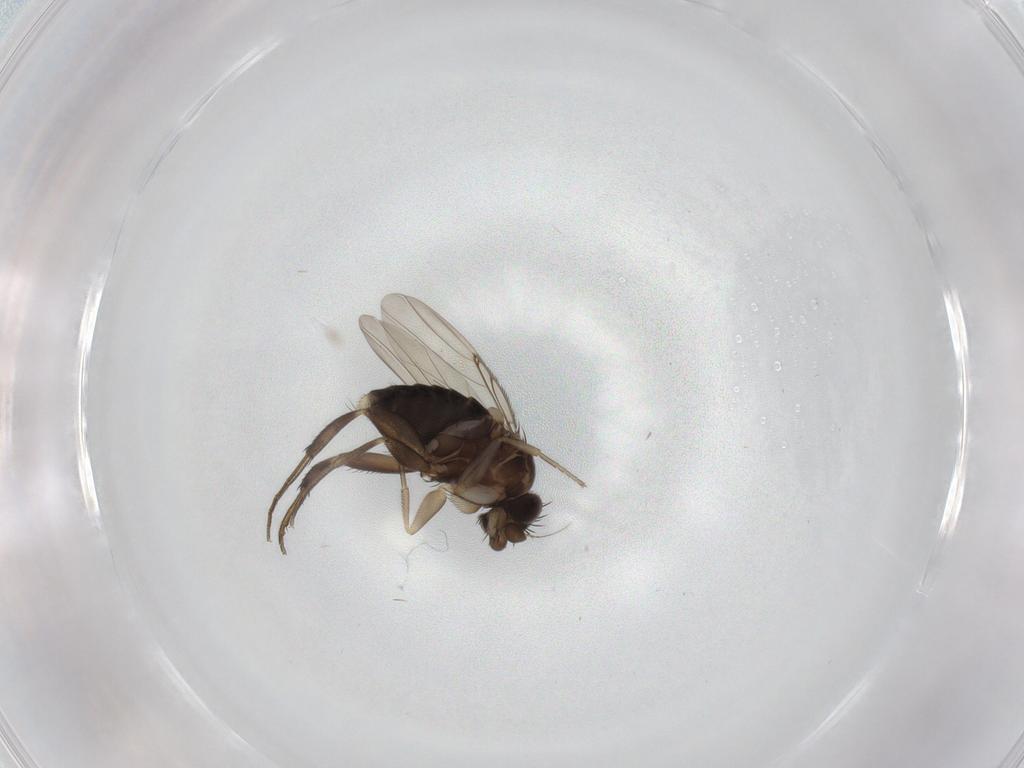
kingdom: Animalia
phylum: Arthropoda
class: Insecta
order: Diptera
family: Phoridae
